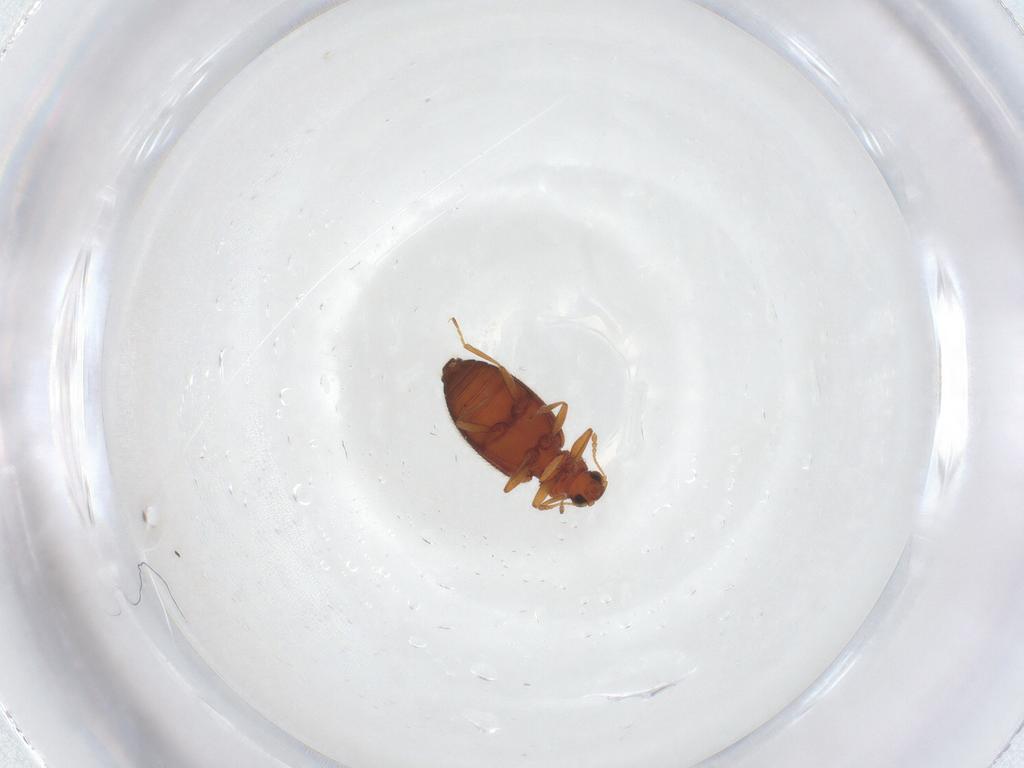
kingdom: Animalia
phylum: Arthropoda
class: Insecta
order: Coleoptera
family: Latridiidae
